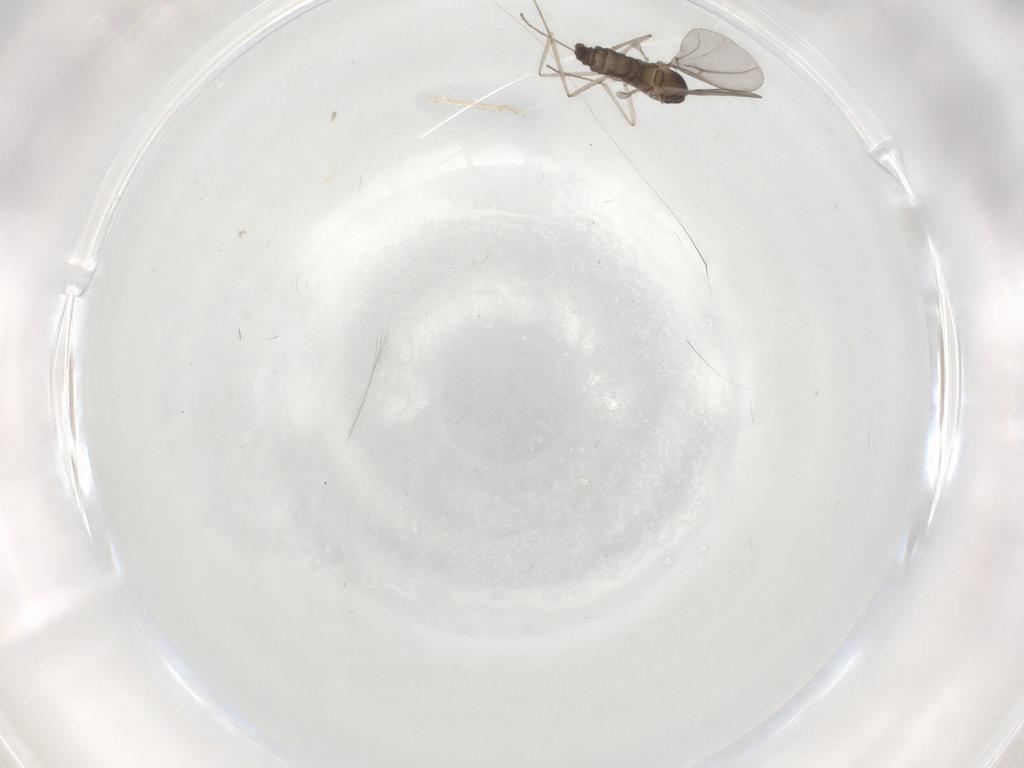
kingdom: Animalia
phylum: Arthropoda
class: Insecta
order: Diptera
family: Cecidomyiidae
